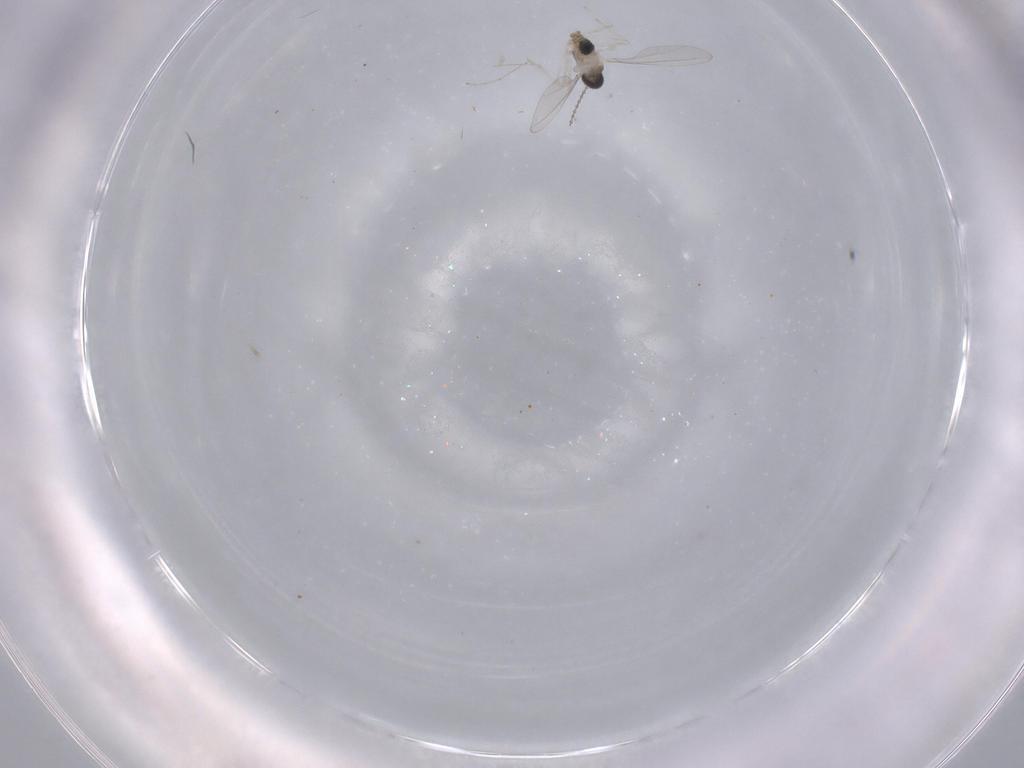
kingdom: Animalia
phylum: Arthropoda
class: Insecta
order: Diptera
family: Cecidomyiidae
